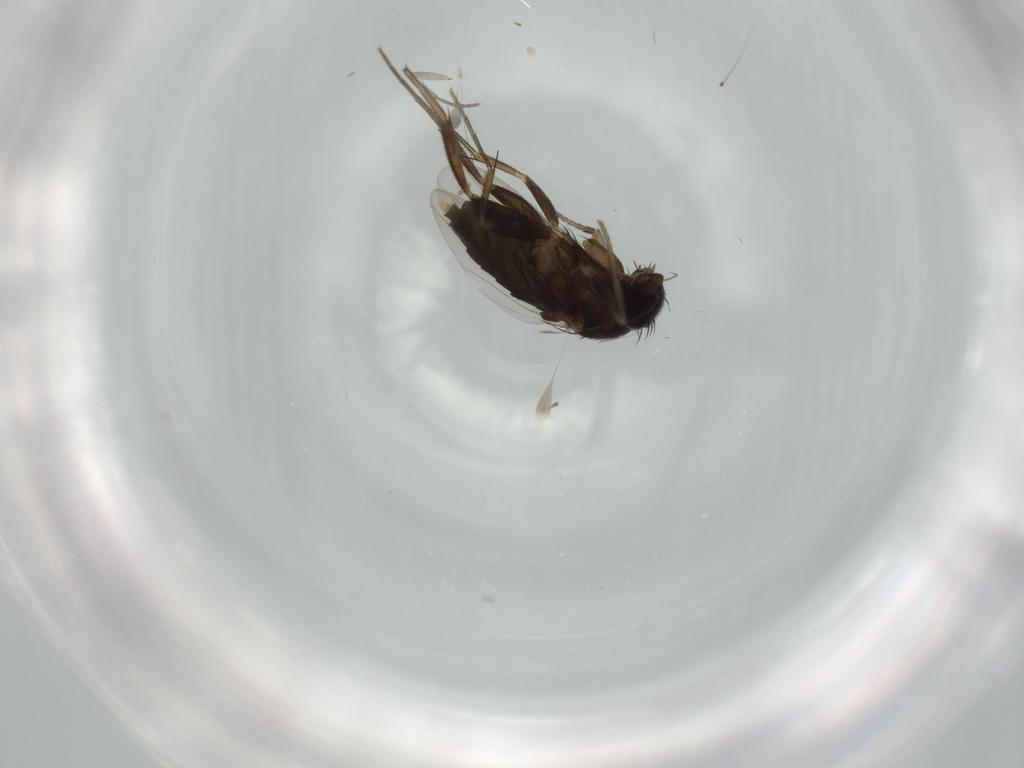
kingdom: Animalia
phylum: Arthropoda
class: Insecta
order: Diptera
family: Phoridae
